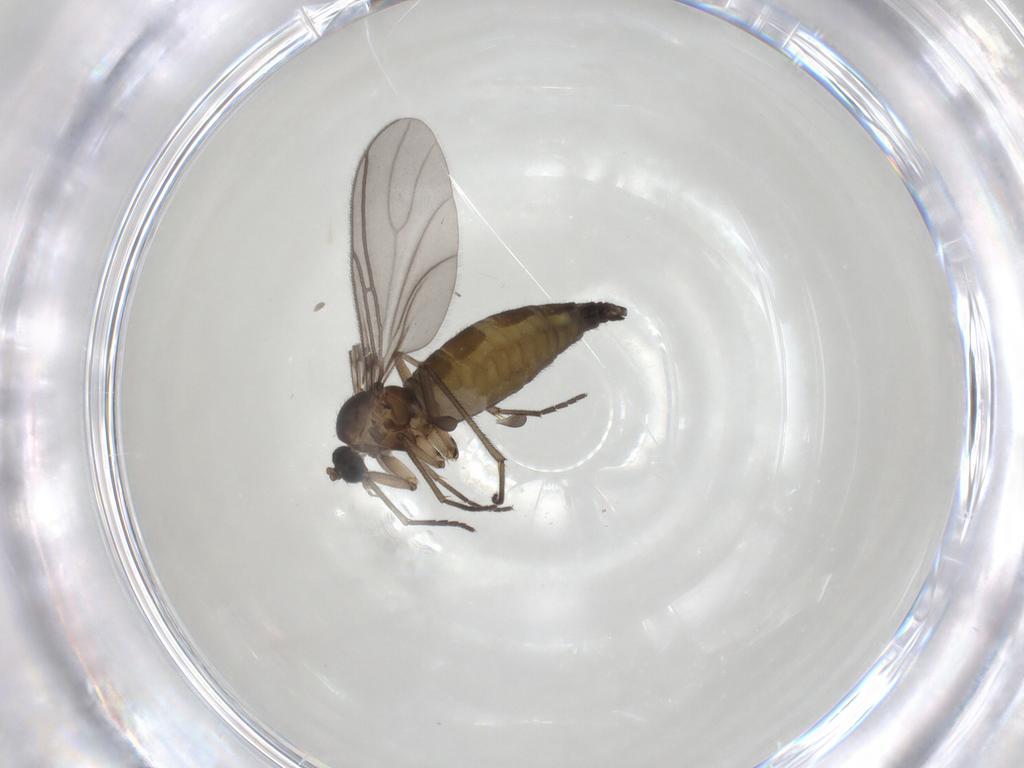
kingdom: Animalia
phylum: Arthropoda
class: Insecta
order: Diptera
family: Sciaridae
